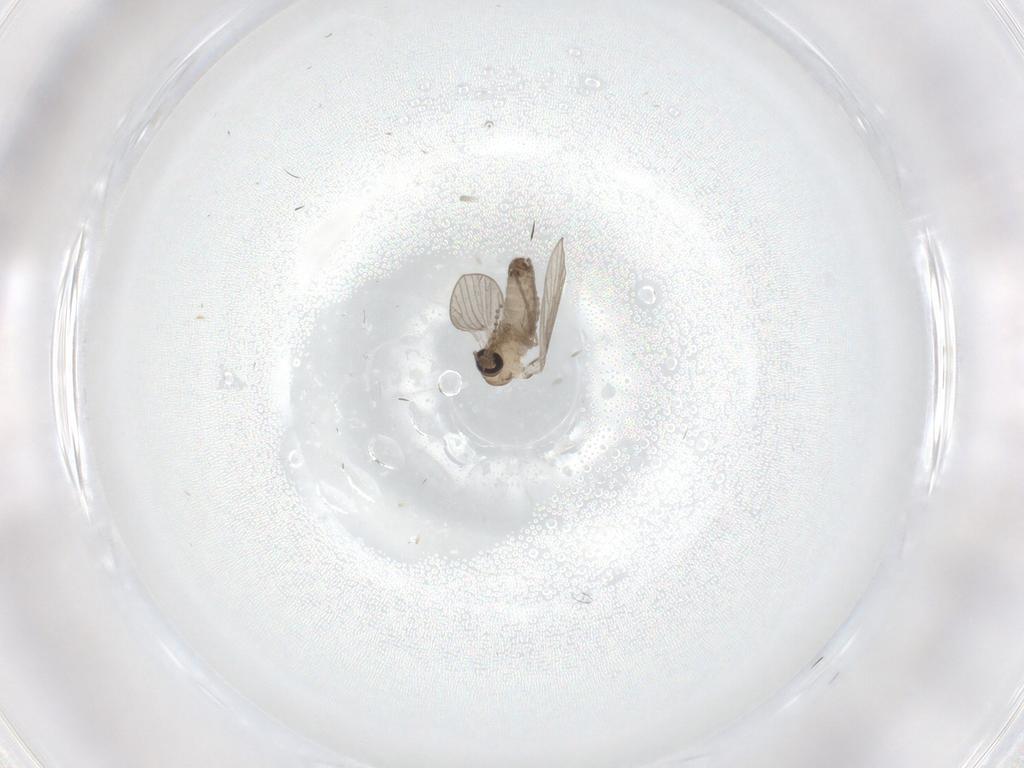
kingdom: Animalia
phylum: Arthropoda
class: Insecta
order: Diptera
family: Psychodidae
